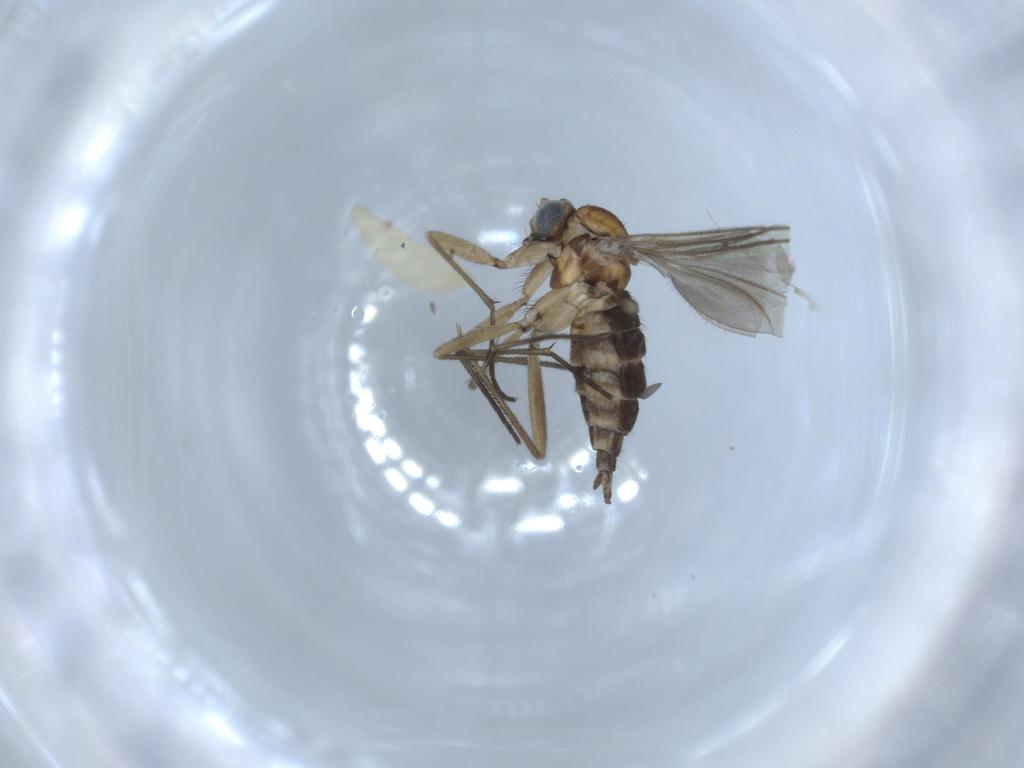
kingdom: Animalia
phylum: Arthropoda
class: Insecta
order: Diptera
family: Sciaridae
